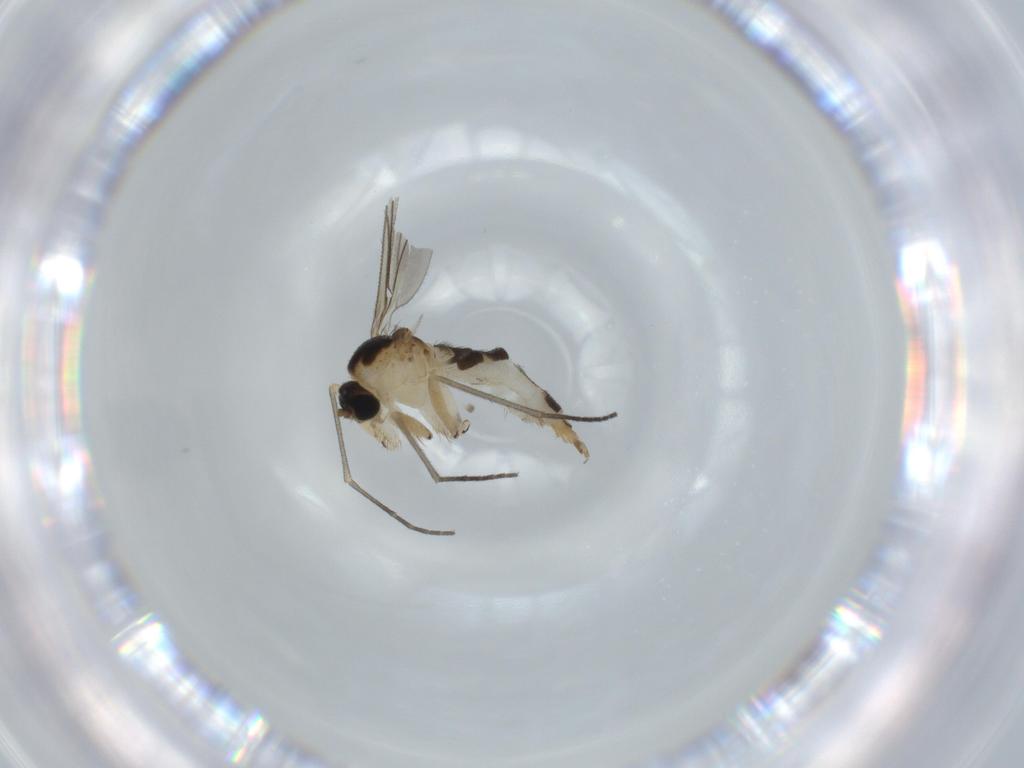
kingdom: Animalia
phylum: Arthropoda
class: Insecta
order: Diptera
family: Sciaridae
